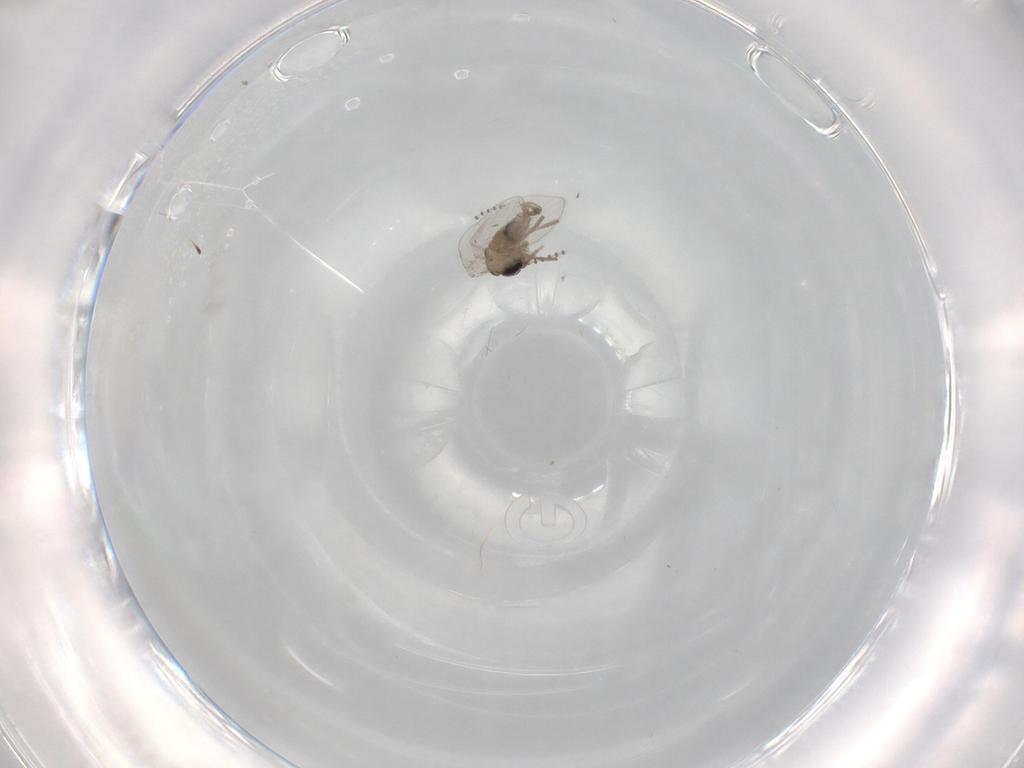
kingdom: Animalia
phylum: Arthropoda
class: Insecta
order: Diptera
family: Psychodidae
